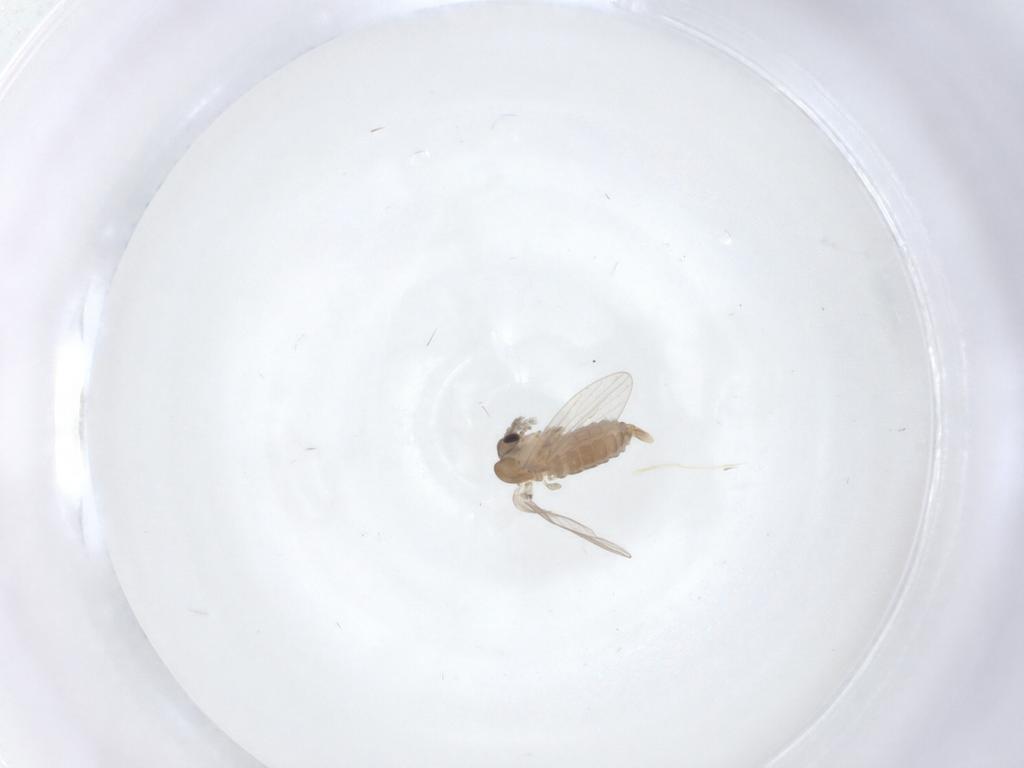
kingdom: Animalia
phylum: Arthropoda
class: Insecta
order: Diptera
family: Psychodidae
